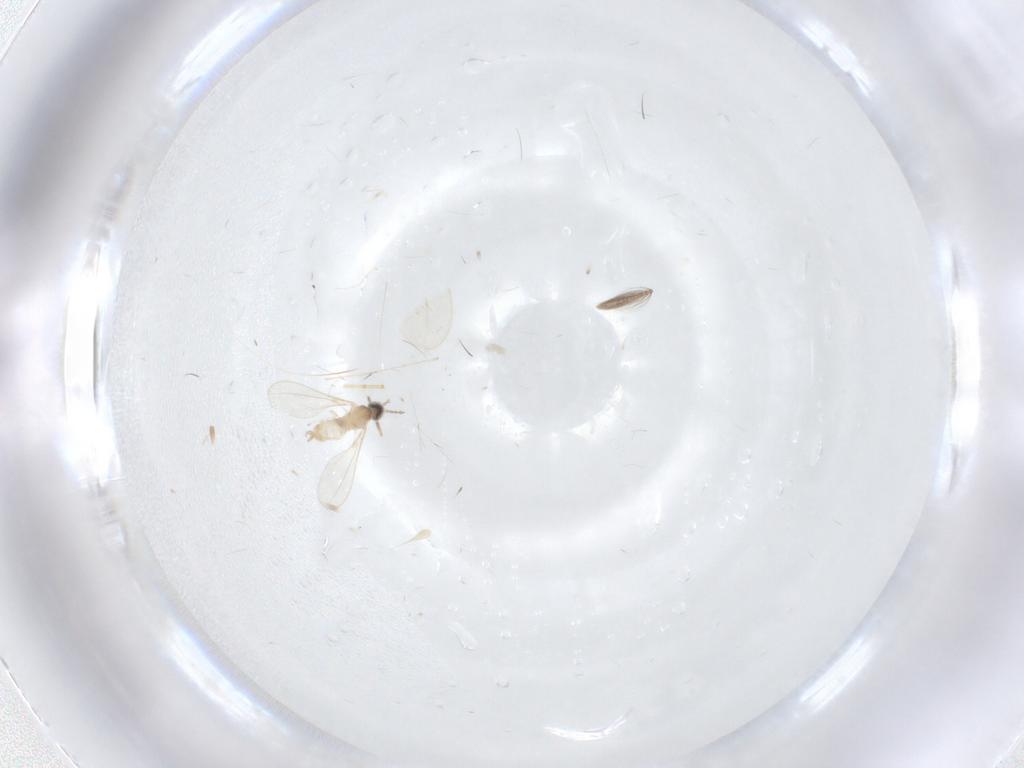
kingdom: Animalia
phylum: Arthropoda
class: Insecta
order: Diptera
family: Cecidomyiidae
